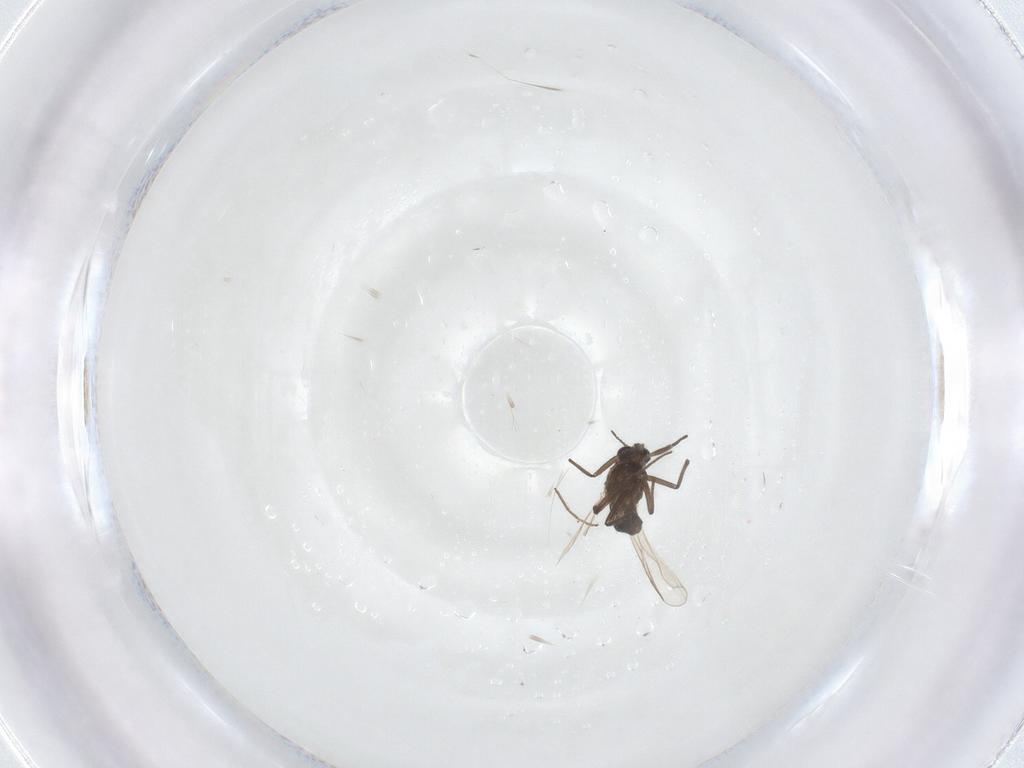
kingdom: Animalia
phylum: Arthropoda
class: Insecta
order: Diptera
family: Chironomidae
